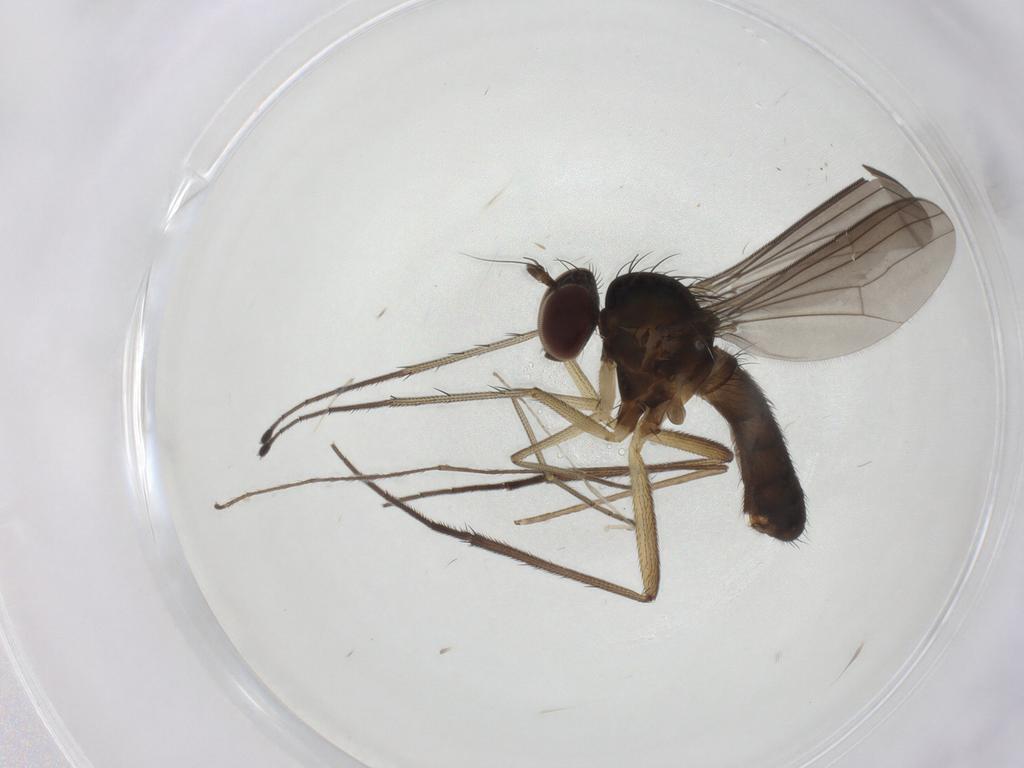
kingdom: Animalia
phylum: Arthropoda
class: Insecta
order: Diptera
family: Limoniidae
